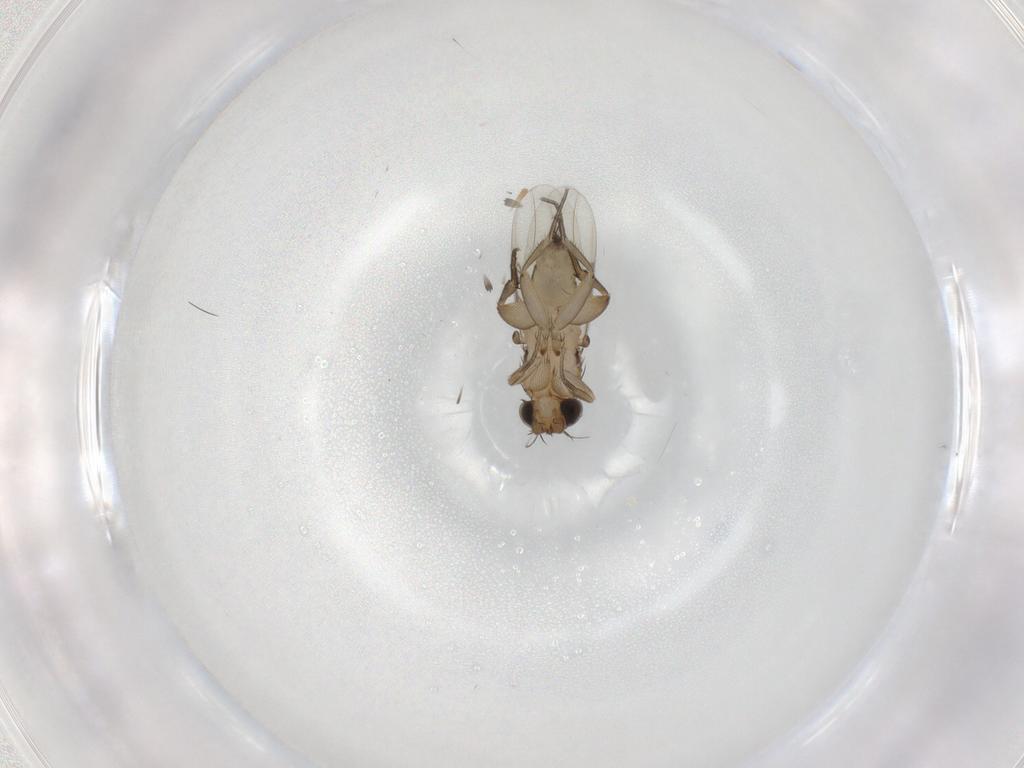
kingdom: Animalia
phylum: Arthropoda
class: Insecta
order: Diptera
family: Phoridae
